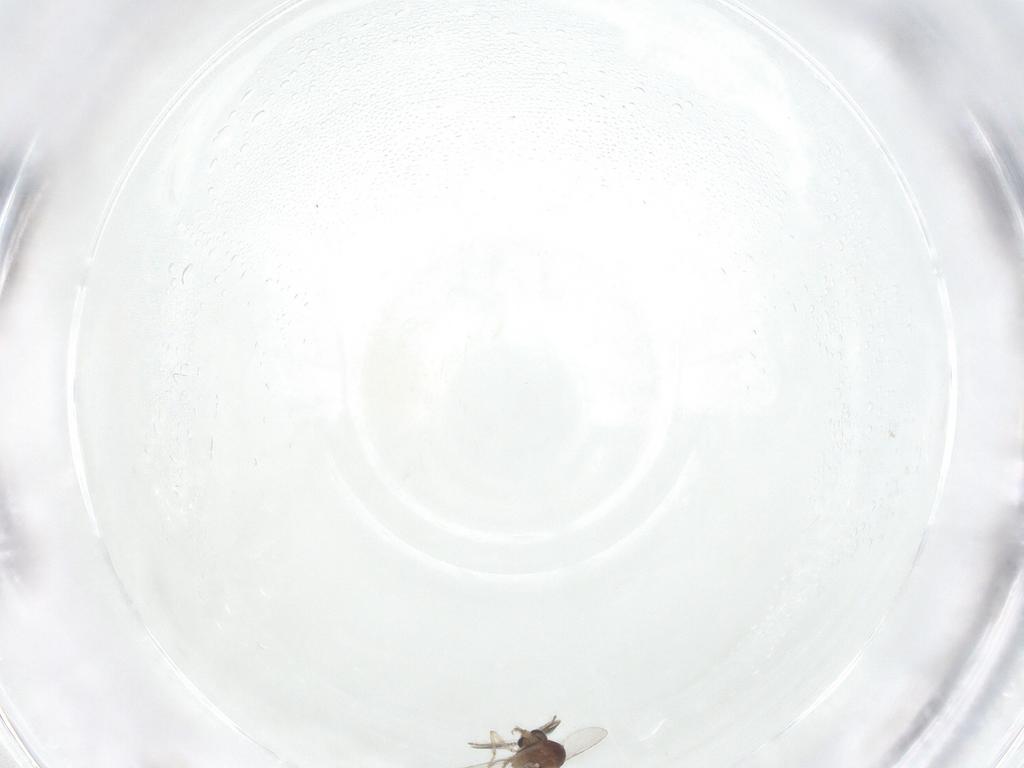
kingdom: Animalia
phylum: Arthropoda
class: Insecta
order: Diptera
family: Ceratopogonidae
